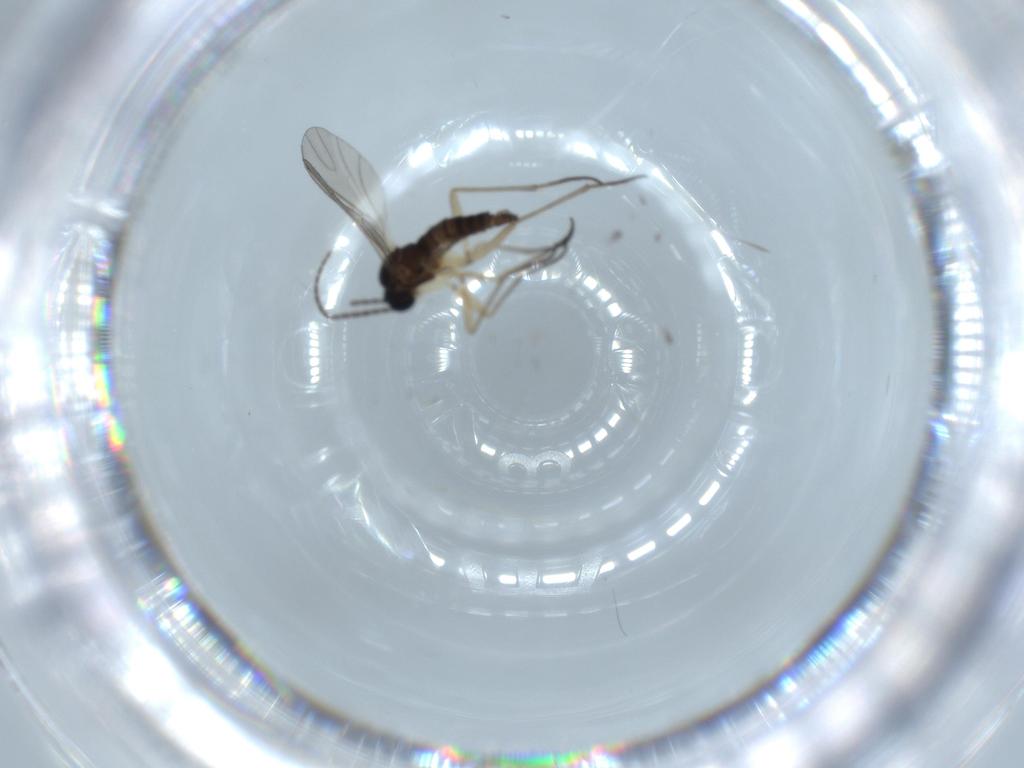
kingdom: Animalia
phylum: Arthropoda
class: Insecta
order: Diptera
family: Sciaridae
